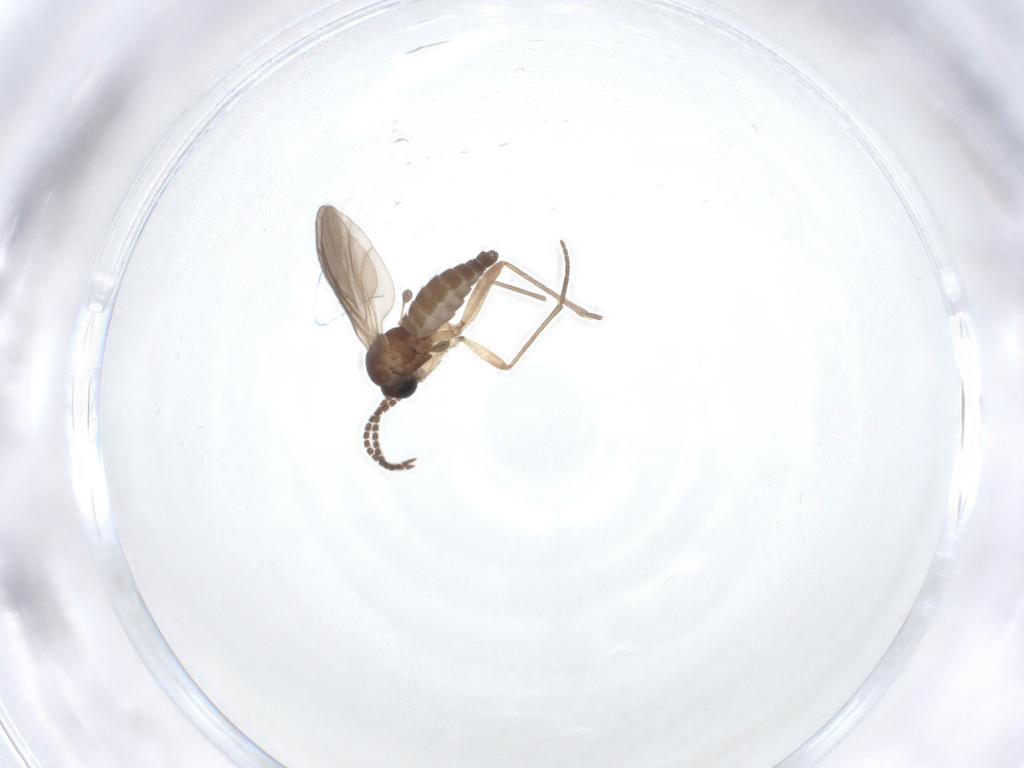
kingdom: Animalia
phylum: Arthropoda
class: Insecta
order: Diptera
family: Sciaridae
